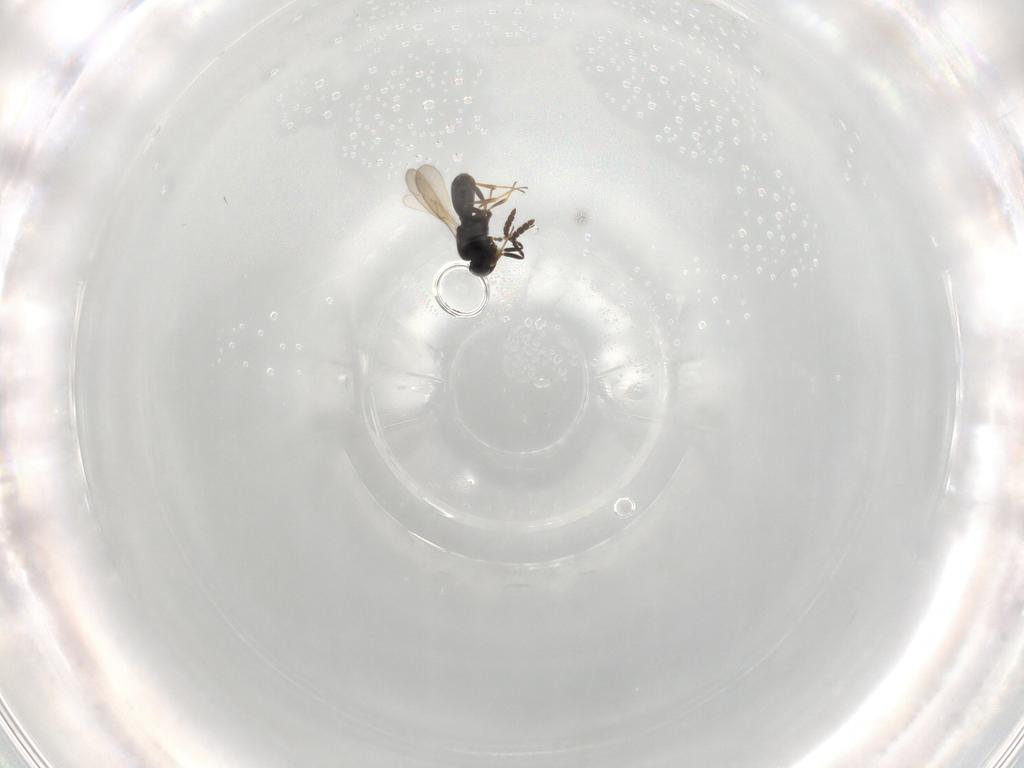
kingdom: Animalia
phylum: Arthropoda
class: Insecta
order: Hymenoptera
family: Scelionidae
